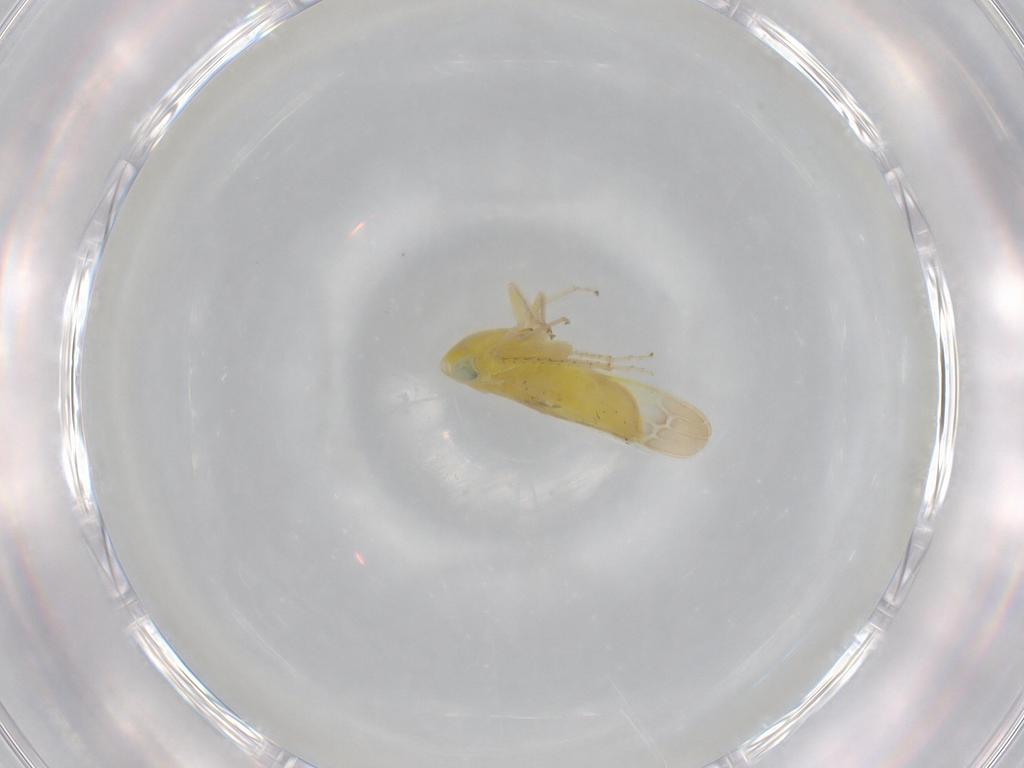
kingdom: Animalia
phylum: Arthropoda
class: Insecta
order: Hemiptera
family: Cicadellidae
